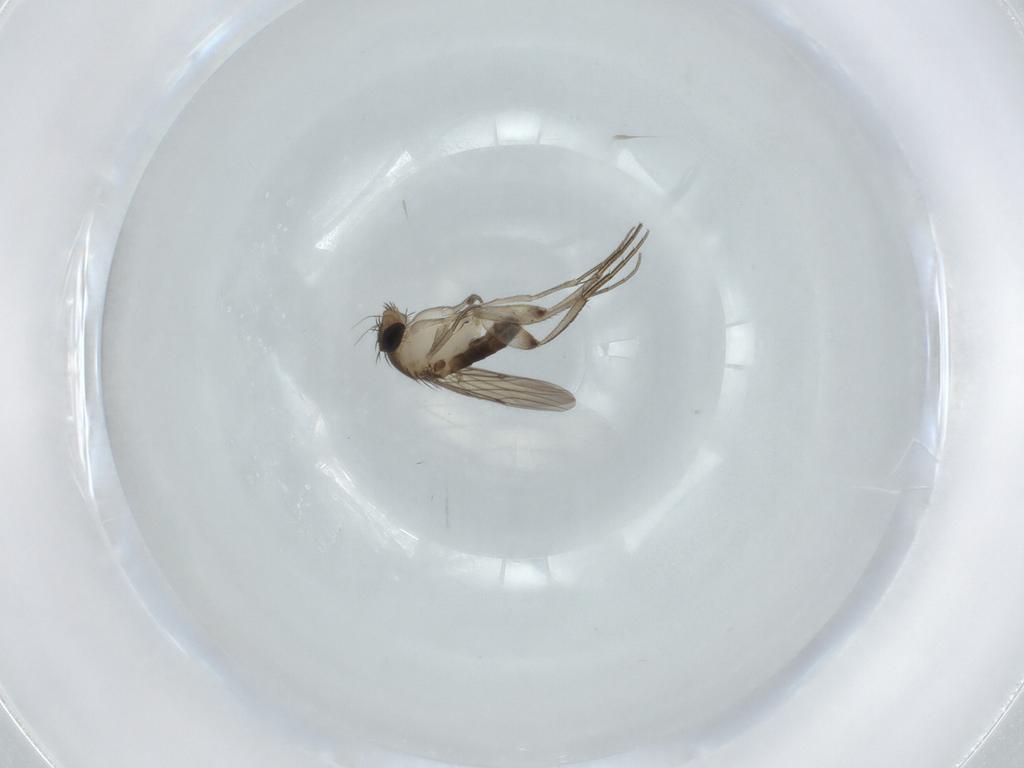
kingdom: Animalia
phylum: Arthropoda
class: Insecta
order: Diptera
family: Phoridae
